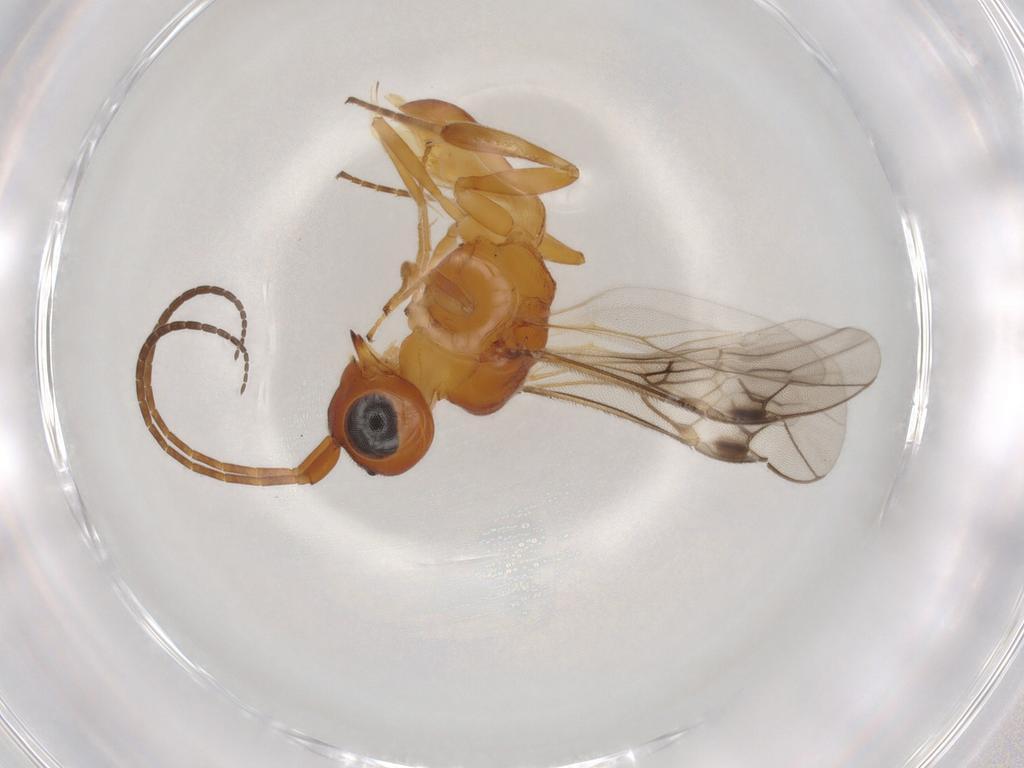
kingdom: Animalia
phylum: Arthropoda
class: Insecta
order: Hymenoptera
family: Braconidae
